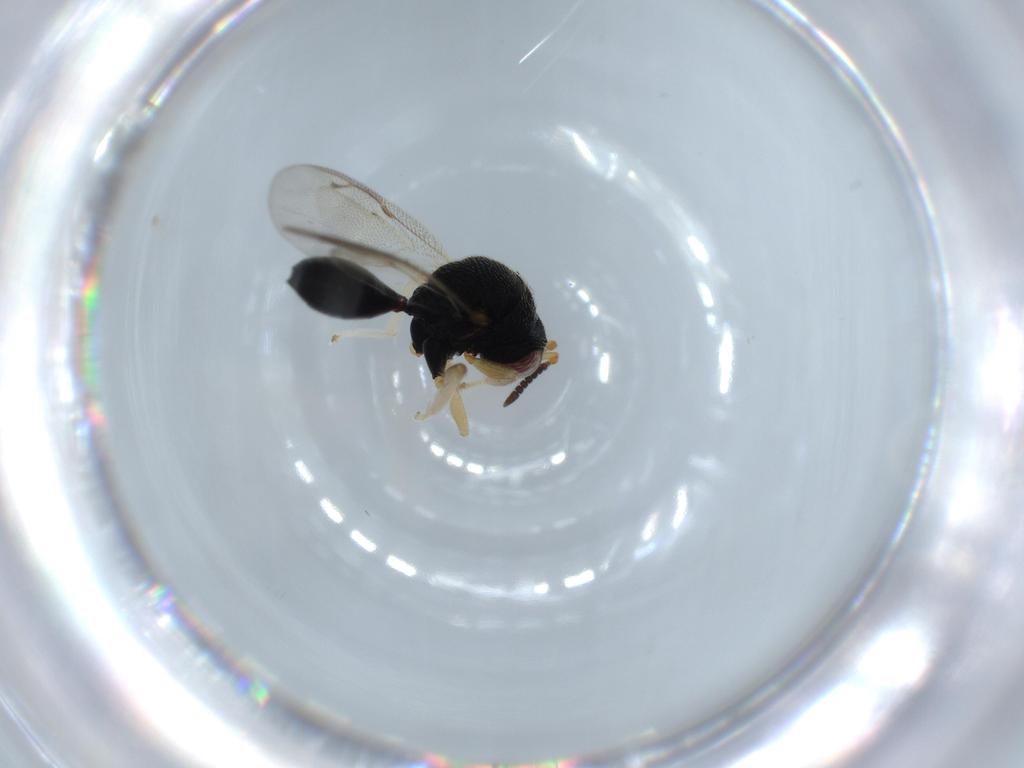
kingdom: Animalia
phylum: Arthropoda
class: Insecta
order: Hymenoptera
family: Eurytomidae
